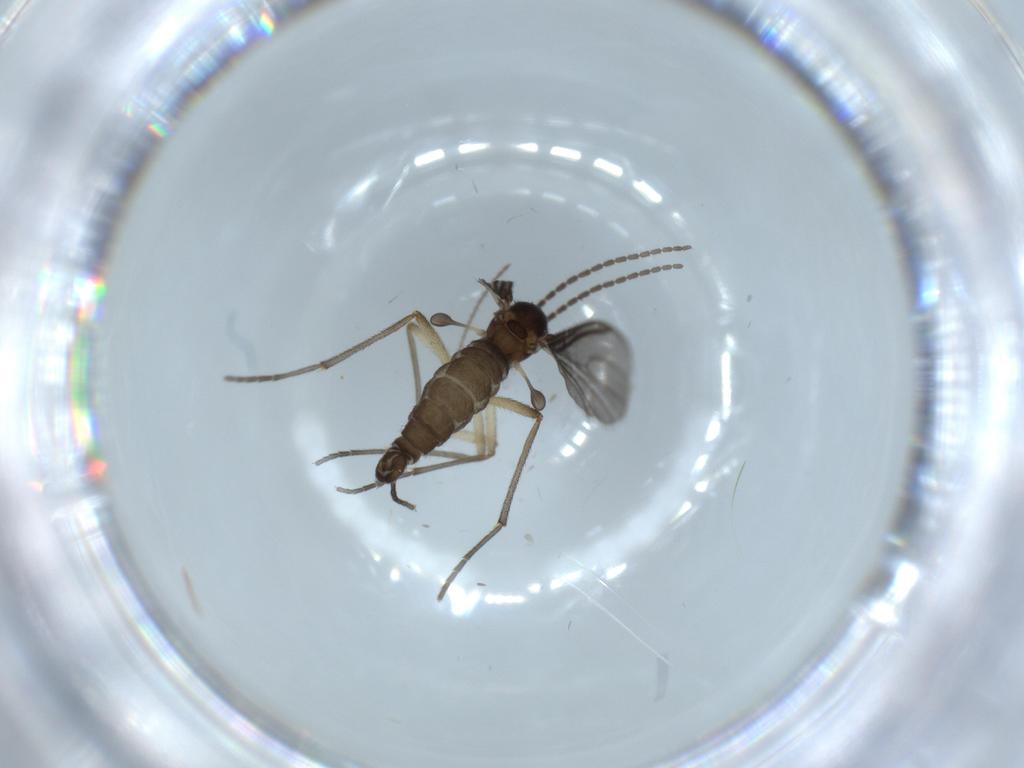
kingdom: Animalia
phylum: Arthropoda
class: Insecta
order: Diptera
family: Sciaridae
